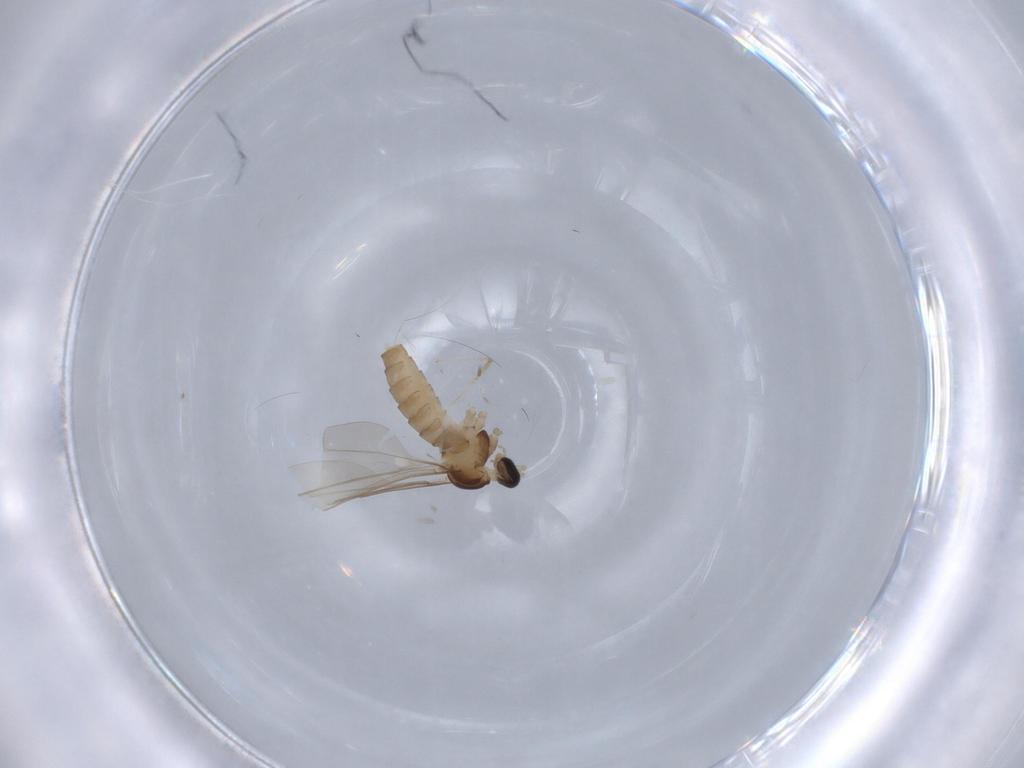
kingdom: Animalia
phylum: Arthropoda
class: Insecta
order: Diptera
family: Cecidomyiidae
